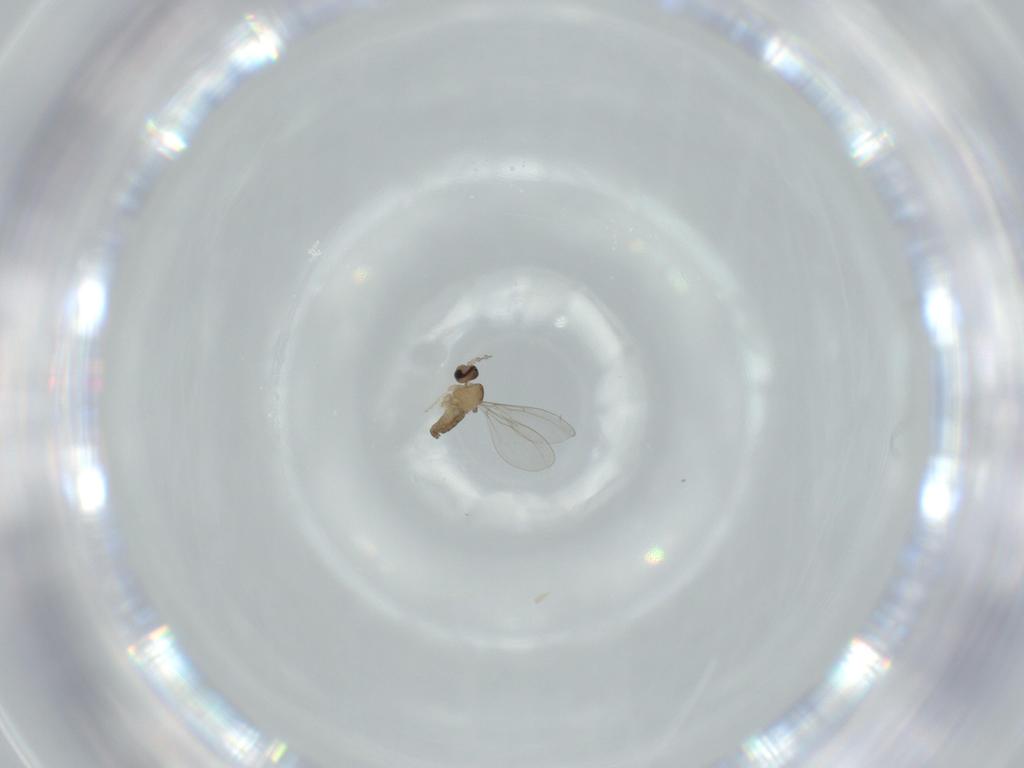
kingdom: Animalia
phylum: Arthropoda
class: Insecta
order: Diptera
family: Cecidomyiidae
